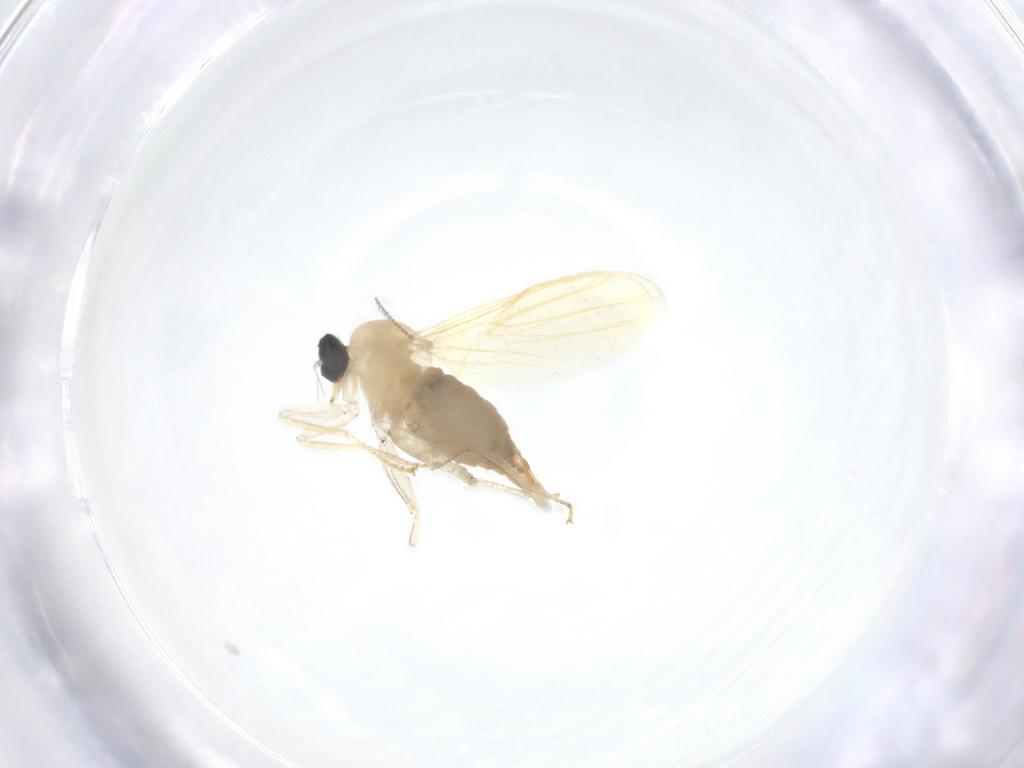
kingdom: Animalia
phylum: Arthropoda
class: Insecta
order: Diptera
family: Hybotidae
